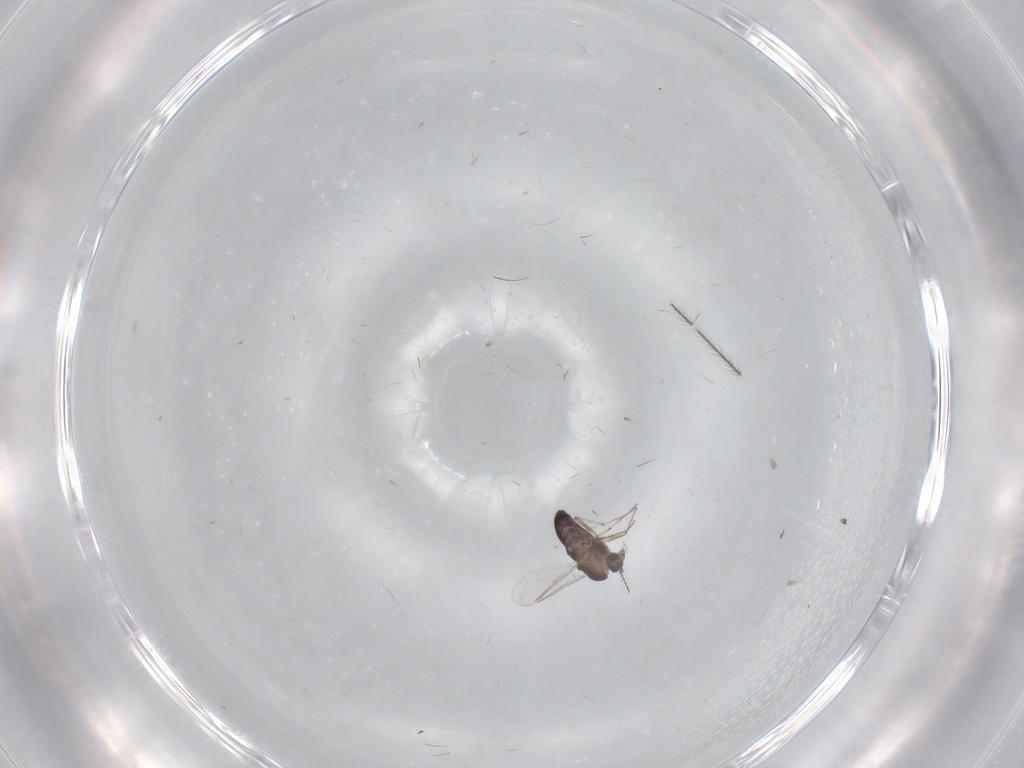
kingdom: Animalia
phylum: Arthropoda
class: Insecta
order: Diptera
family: Chironomidae
